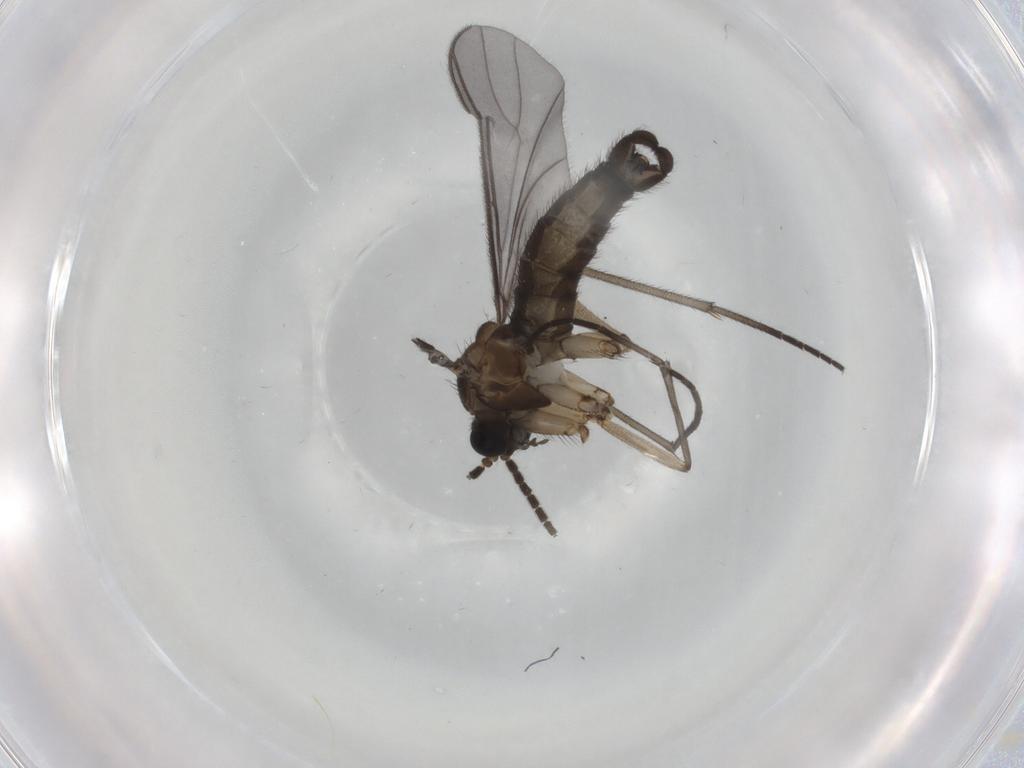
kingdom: Animalia
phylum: Arthropoda
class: Insecta
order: Diptera
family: Sciaridae
